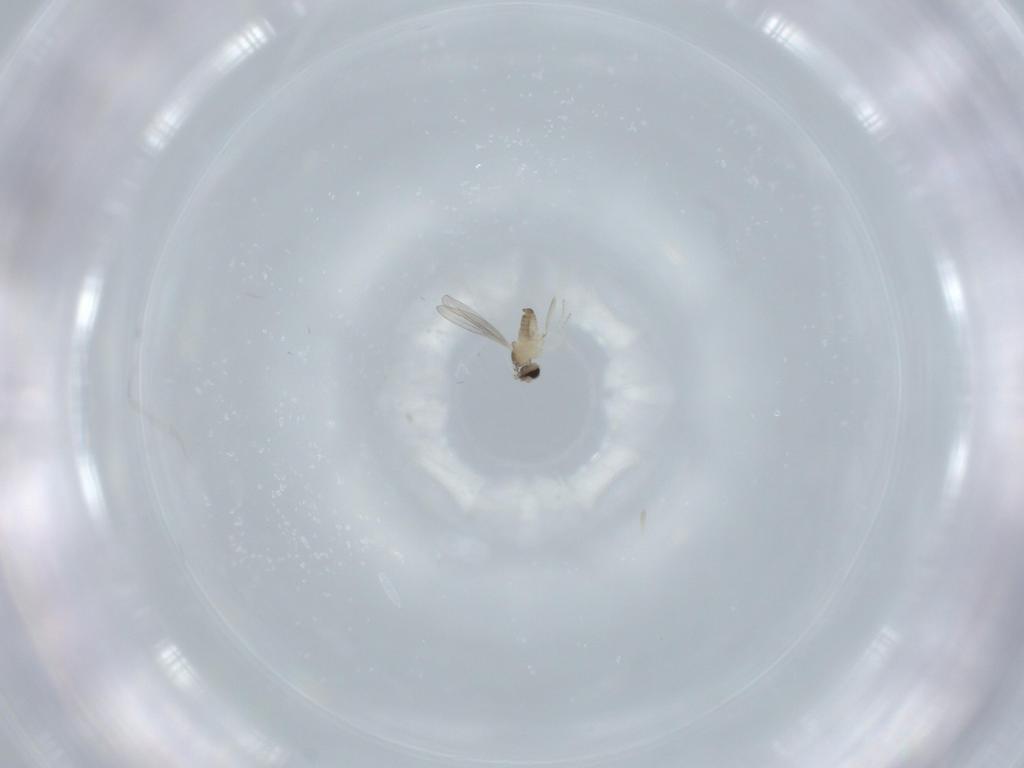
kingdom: Animalia
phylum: Arthropoda
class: Insecta
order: Diptera
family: Cecidomyiidae
